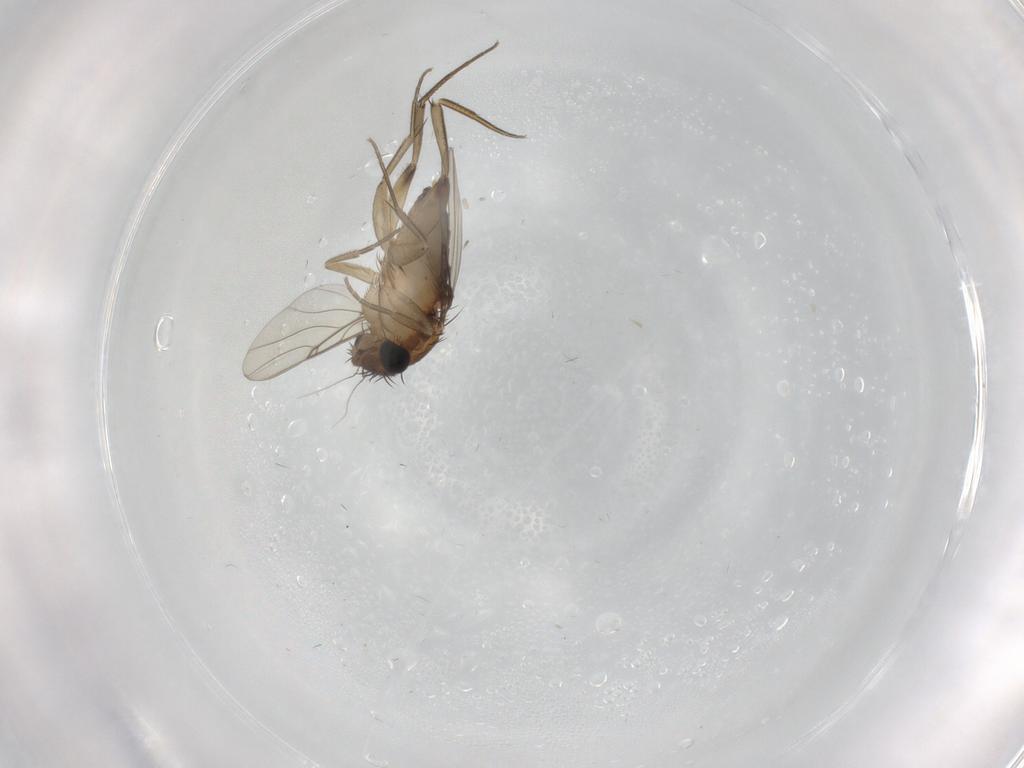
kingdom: Animalia
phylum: Arthropoda
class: Insecta
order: Diptera
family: Phoridae
